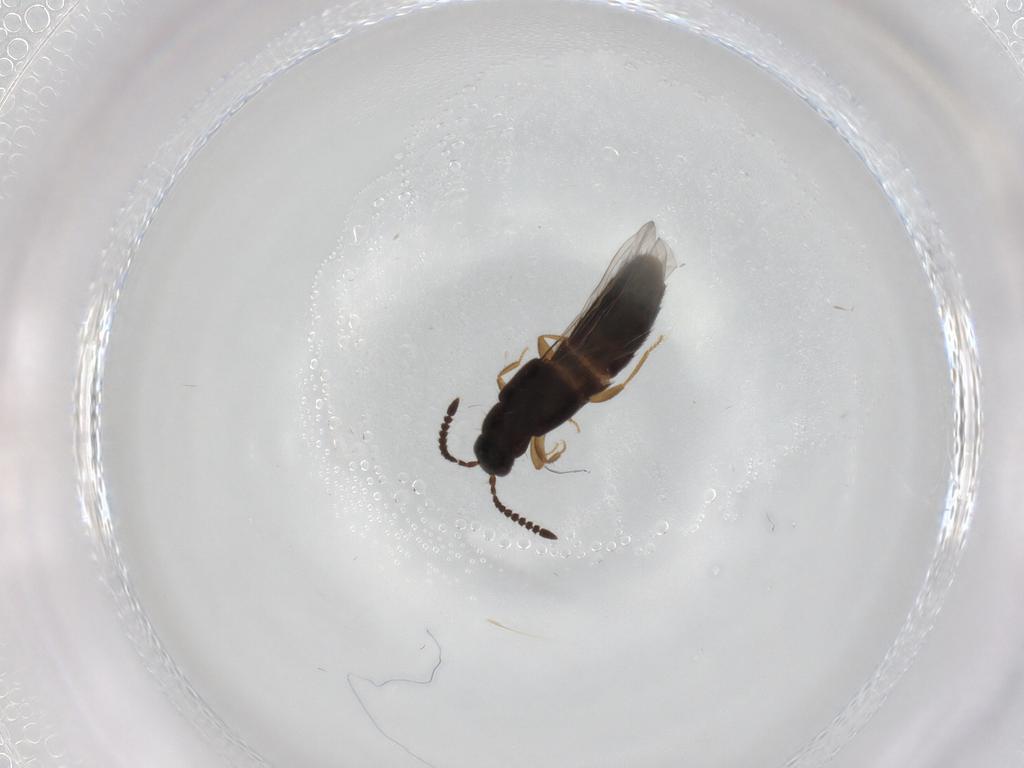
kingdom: Animalia
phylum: Arthropoda
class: Insecta
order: Coleoptera
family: Staphylinidae
